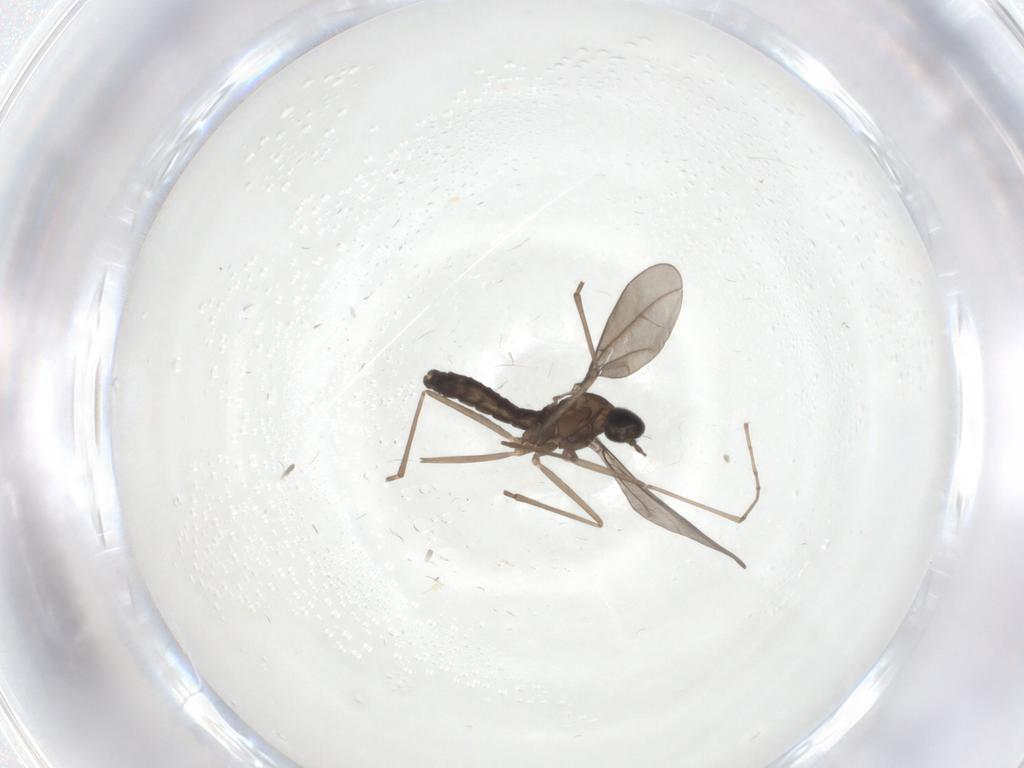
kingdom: Animalia
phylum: Arthropoda
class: Insecta
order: Diptera
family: Cecidomyiidae
